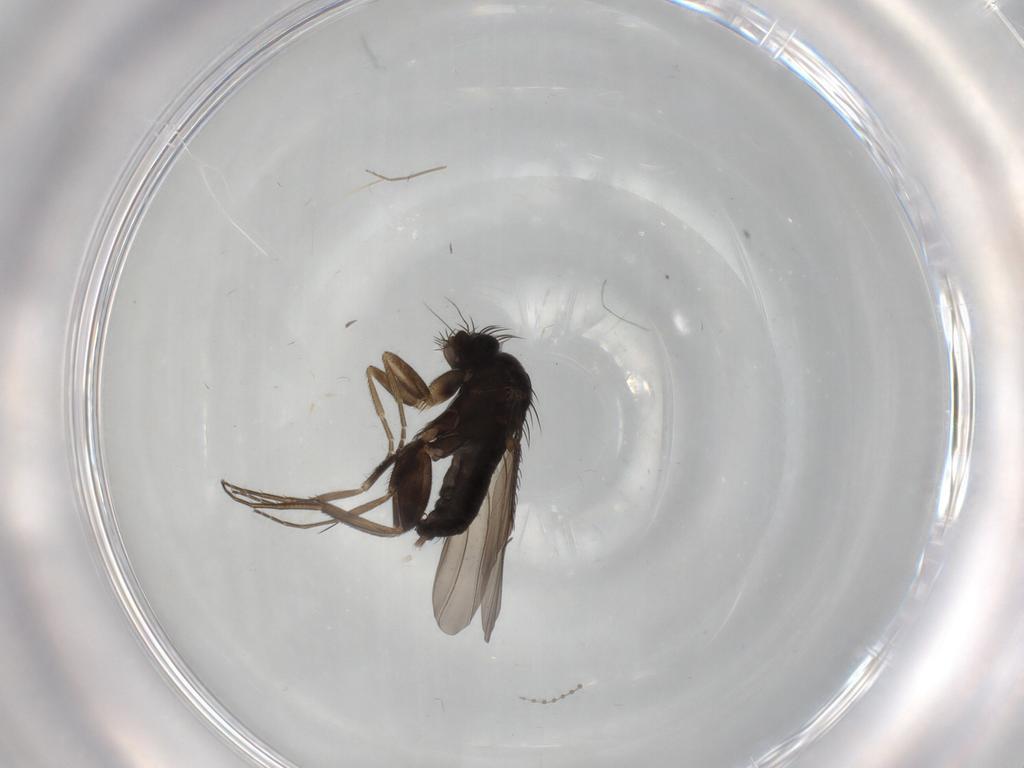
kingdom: Animalia
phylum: Arthropoda
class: Insecta
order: Diptera
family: Phoridae
